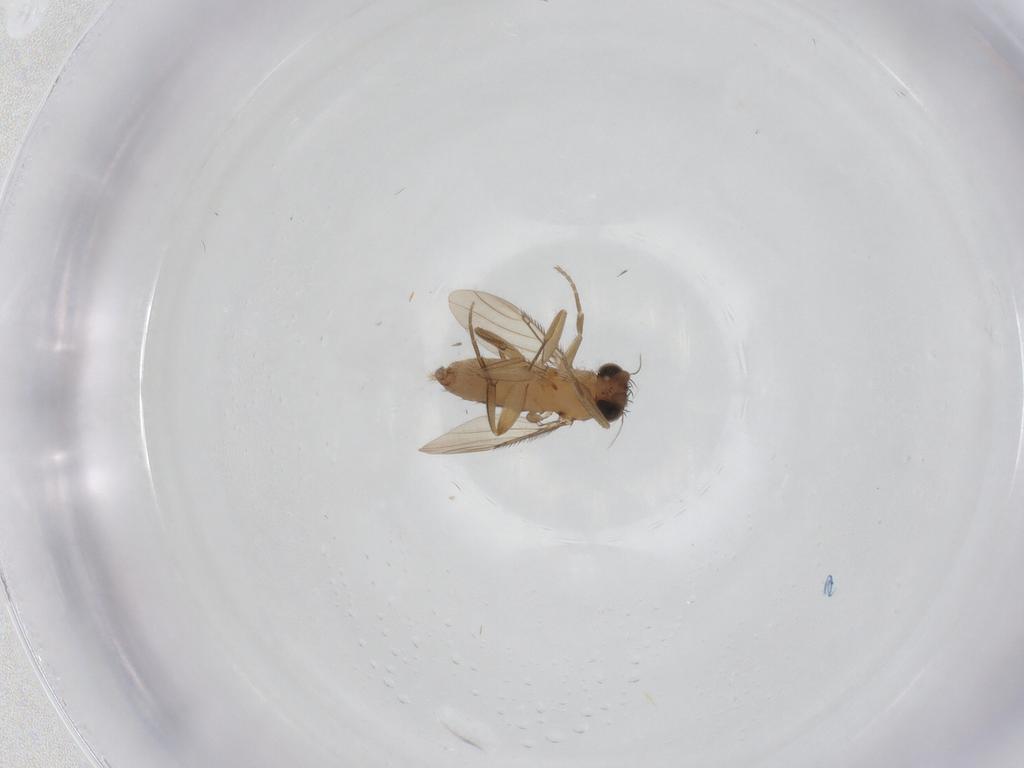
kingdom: Animalia
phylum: Arthropoda
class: Insecta
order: Diptera
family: Phoridae
